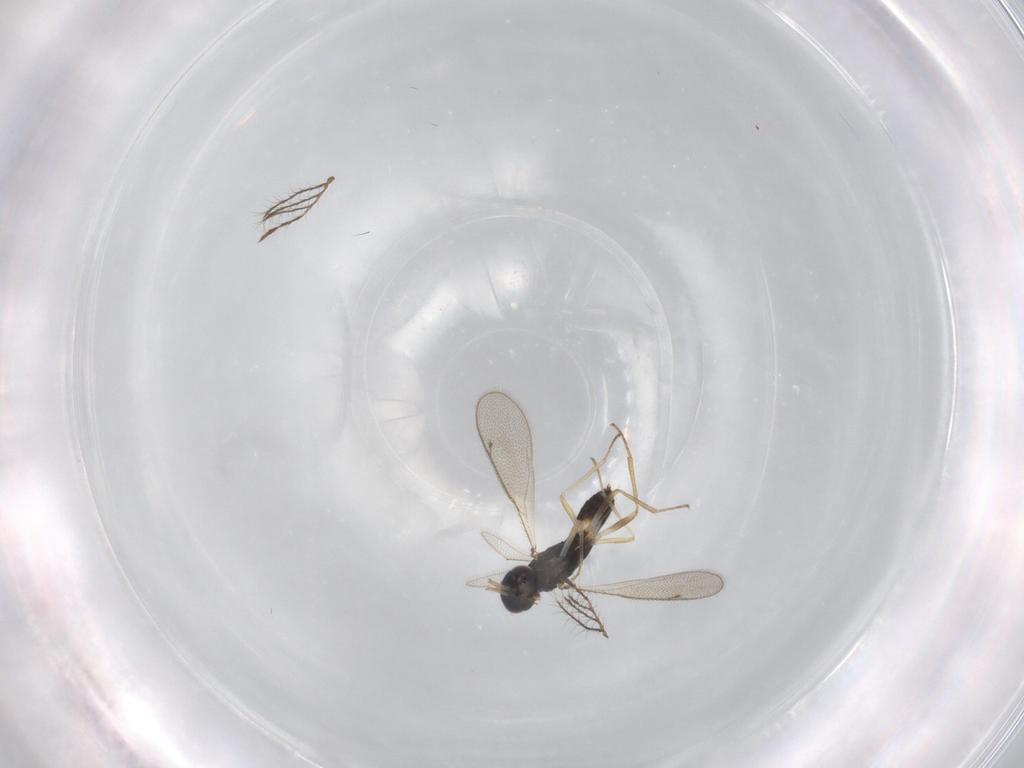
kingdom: Animalia
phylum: Arthropoda
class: Insecta
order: Hymenoptera
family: Eulophidae
